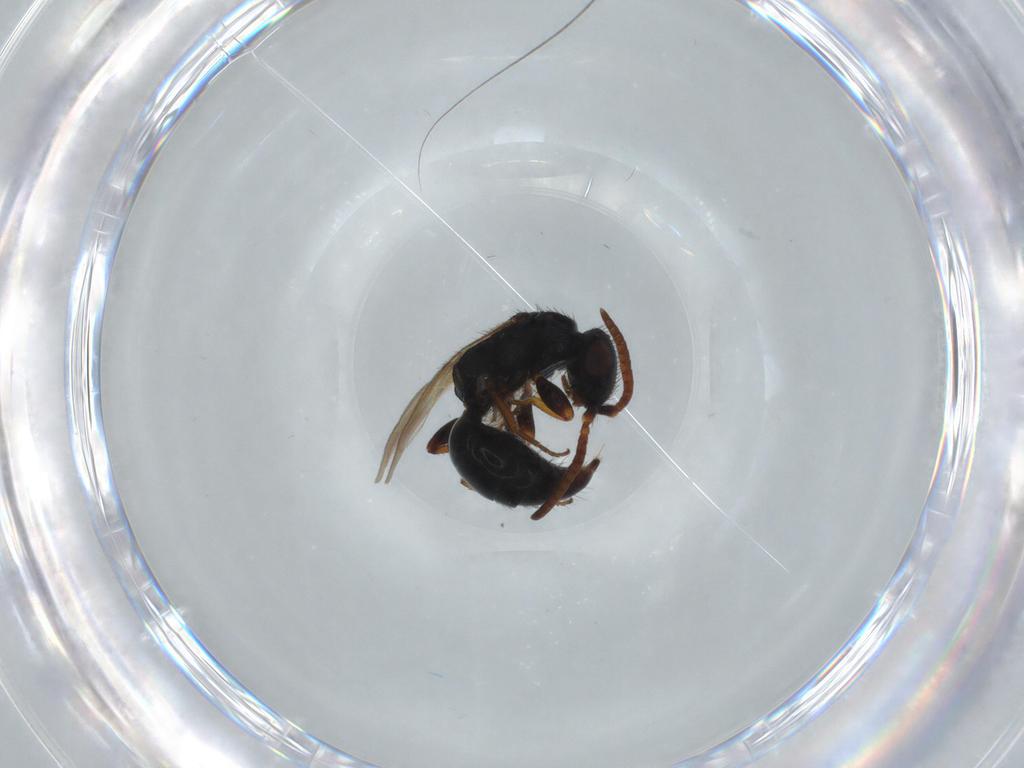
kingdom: Animalia
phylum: Arthropoda
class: Insecta
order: Hymenoptera
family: Bethylidae
